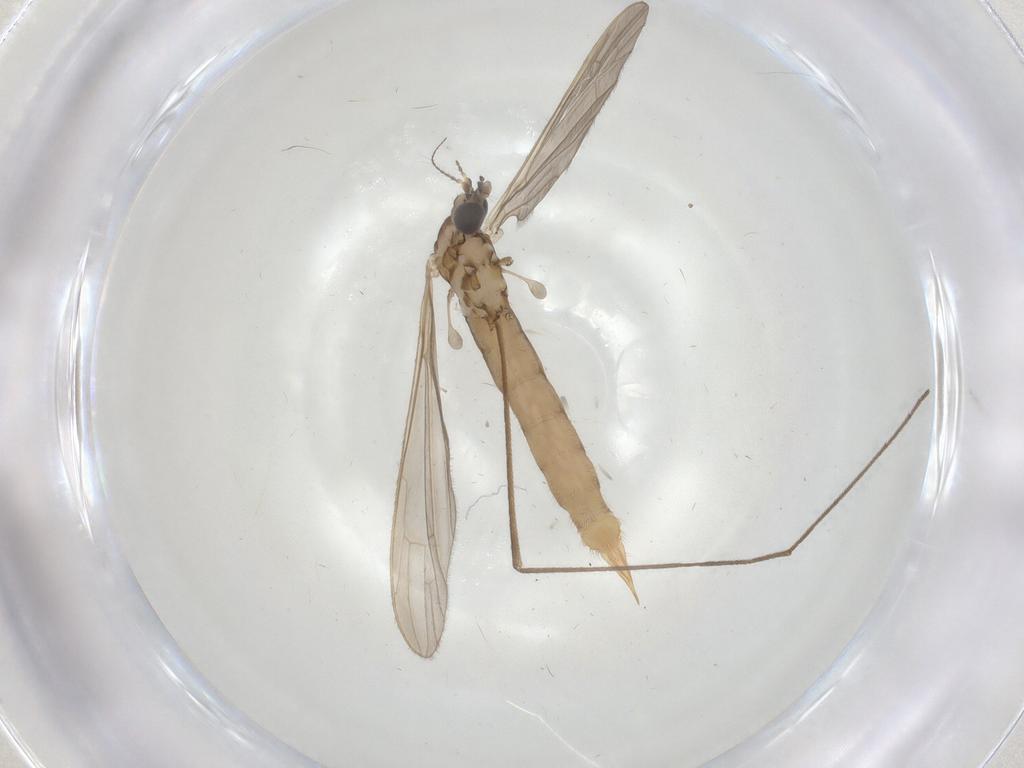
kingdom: Animalia
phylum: Arthropoda
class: Insecta
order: Diptera
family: Limoniidae
